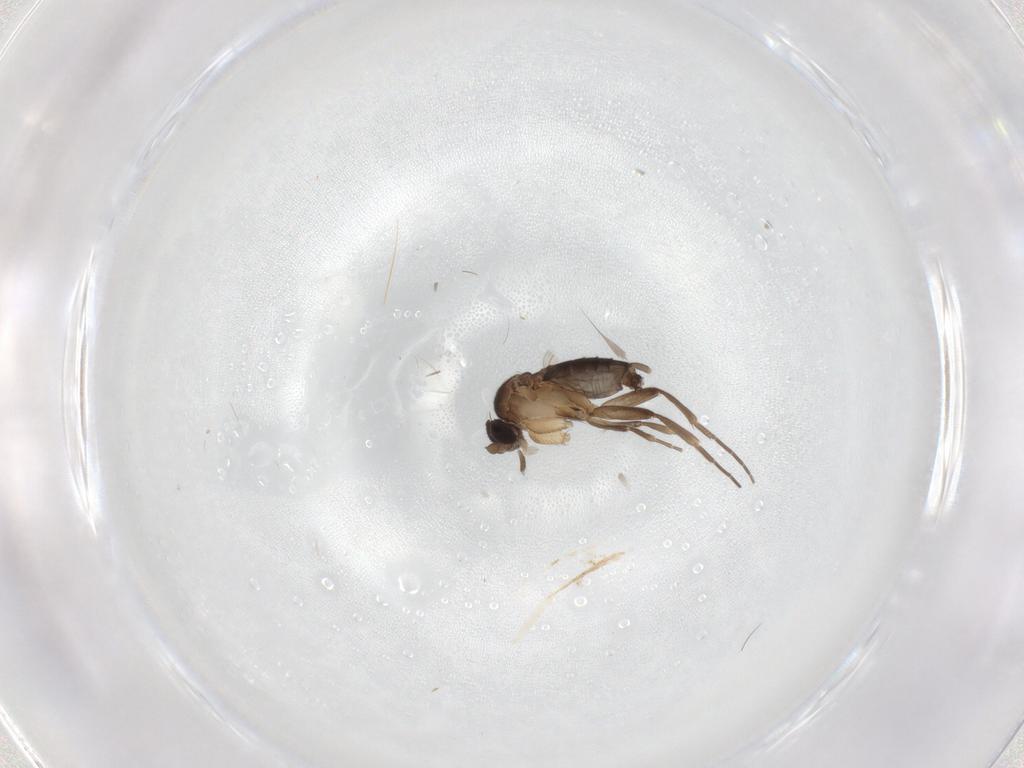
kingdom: Animalia
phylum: Arthropoda
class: Insecta
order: Diptera
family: Phoridae
